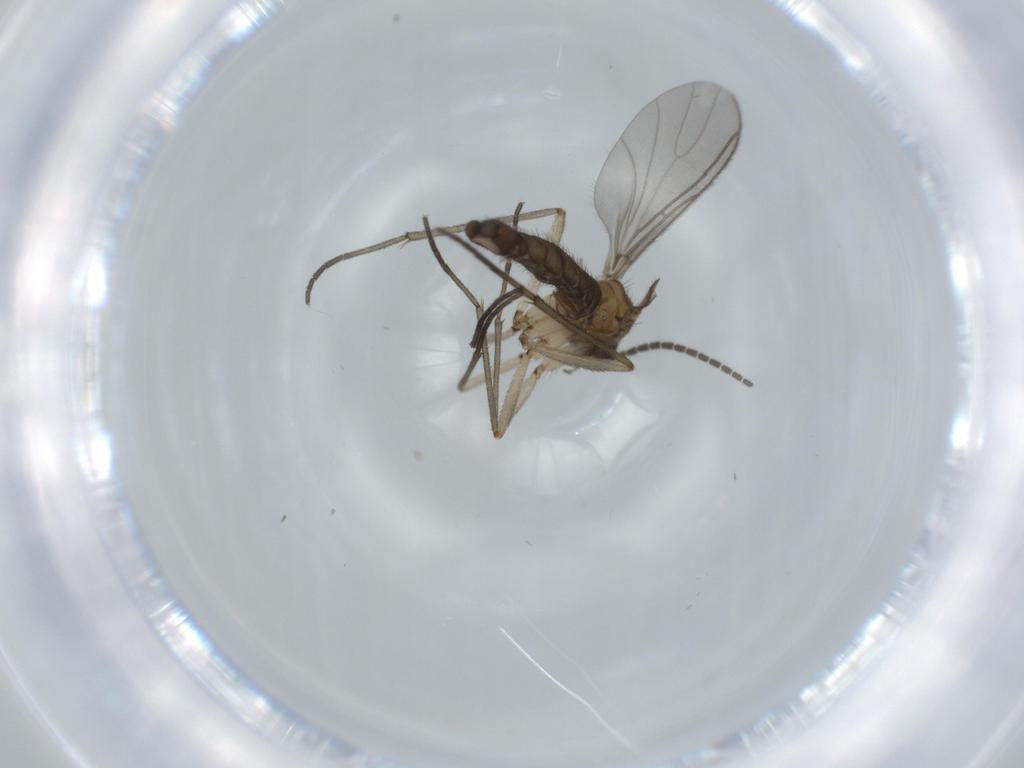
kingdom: Animalia
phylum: Arthropoda
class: Insecta
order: Diptera
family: Sciaridae
